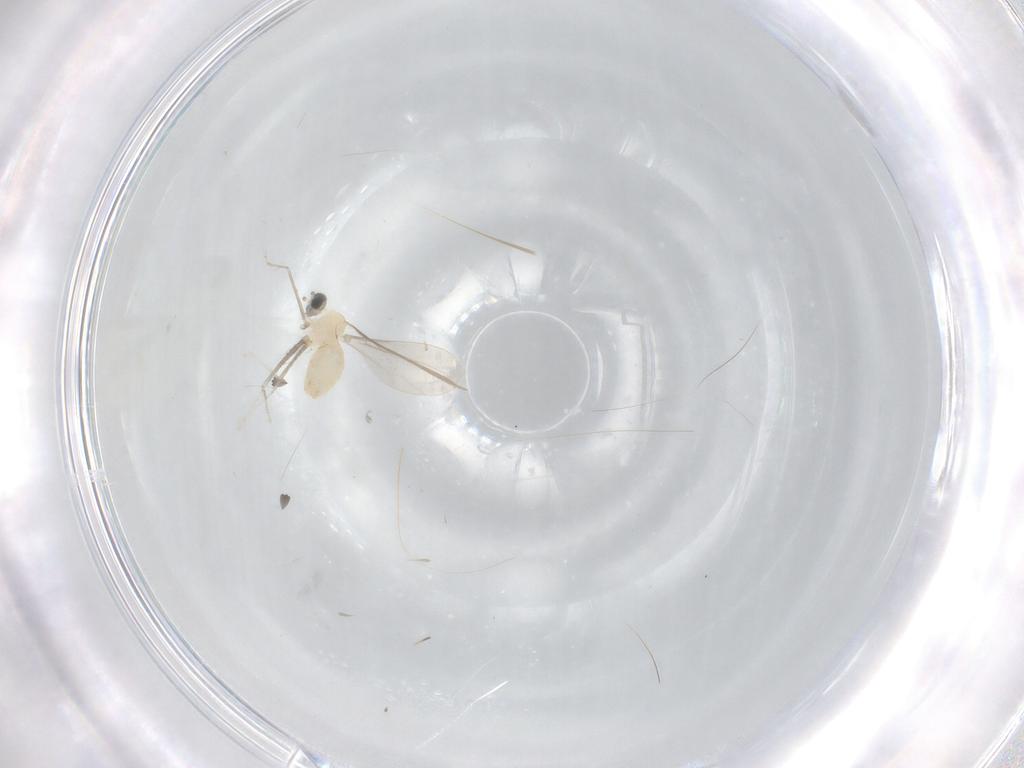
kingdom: Animalia
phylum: Arthropoda
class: Insecta
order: Diptera
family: Cecidomyiidae
